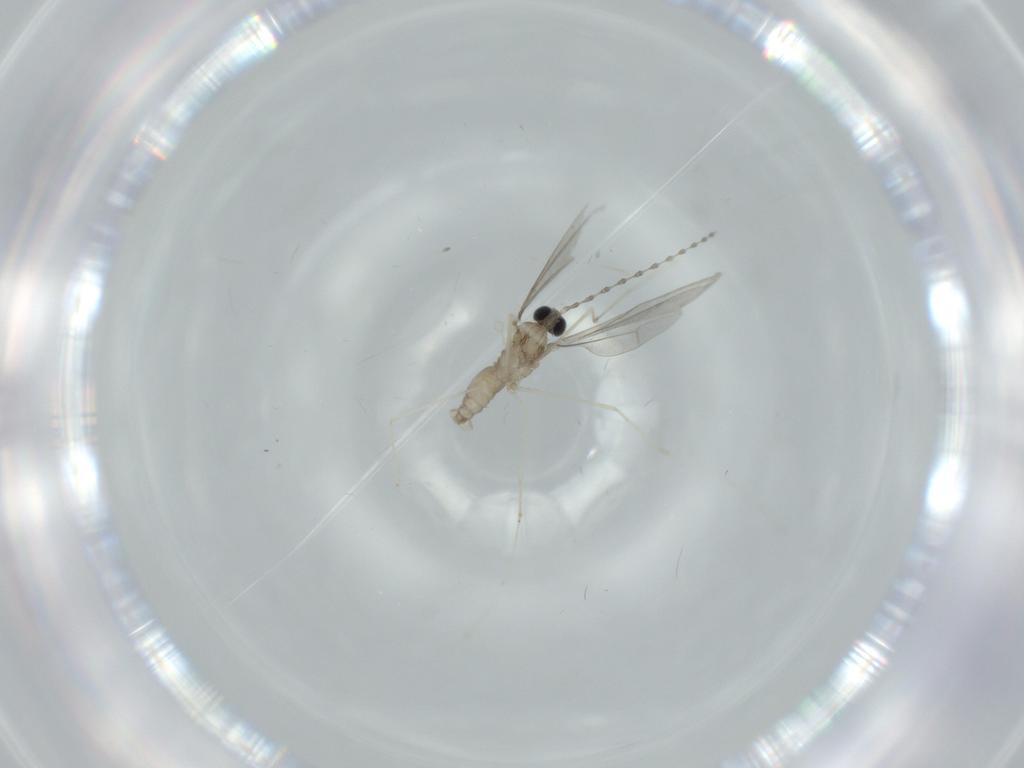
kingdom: Animalia
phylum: Arthropoda
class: Insecta
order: Diptera
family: Cecidomyiidae
